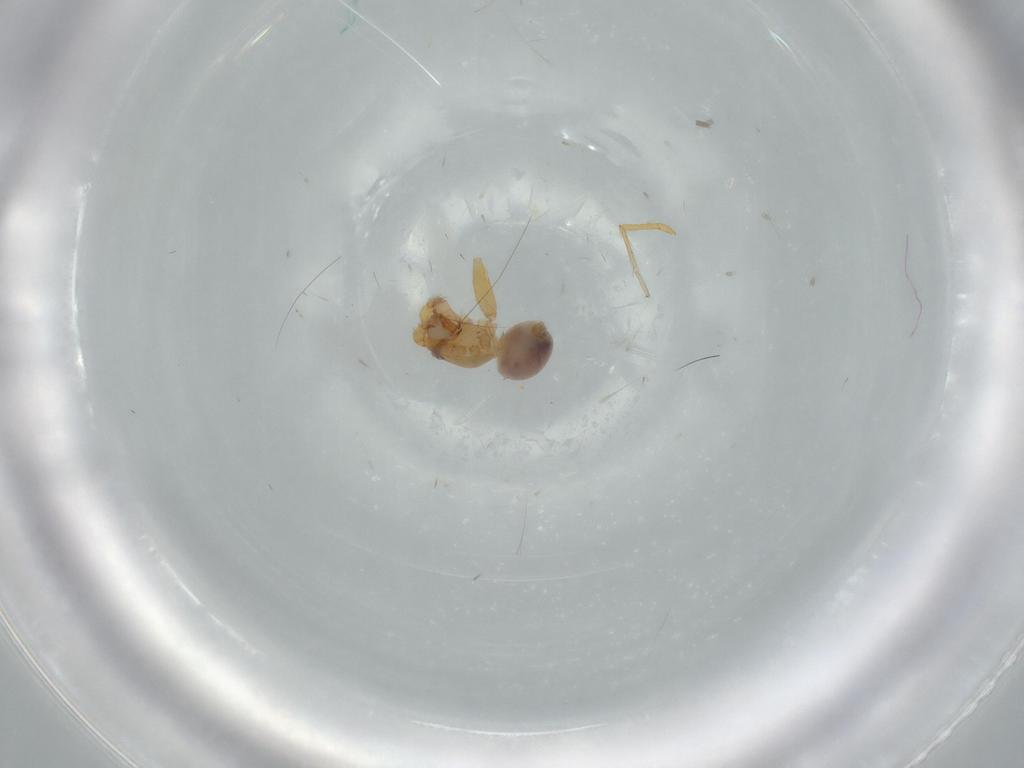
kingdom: Animalia
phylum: Arthropoda
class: Arachnida
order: Araneae
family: Oonopidae
